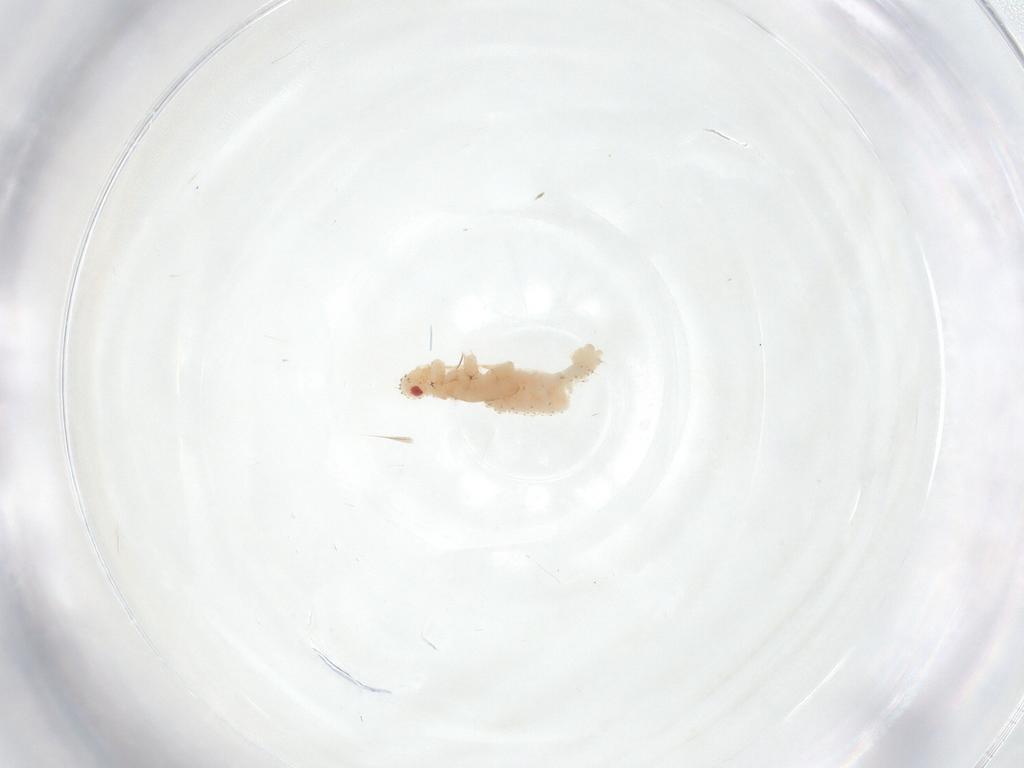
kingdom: Animalia
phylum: Arthropoda
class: Insecta
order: Hemiptera
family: Aphididae
